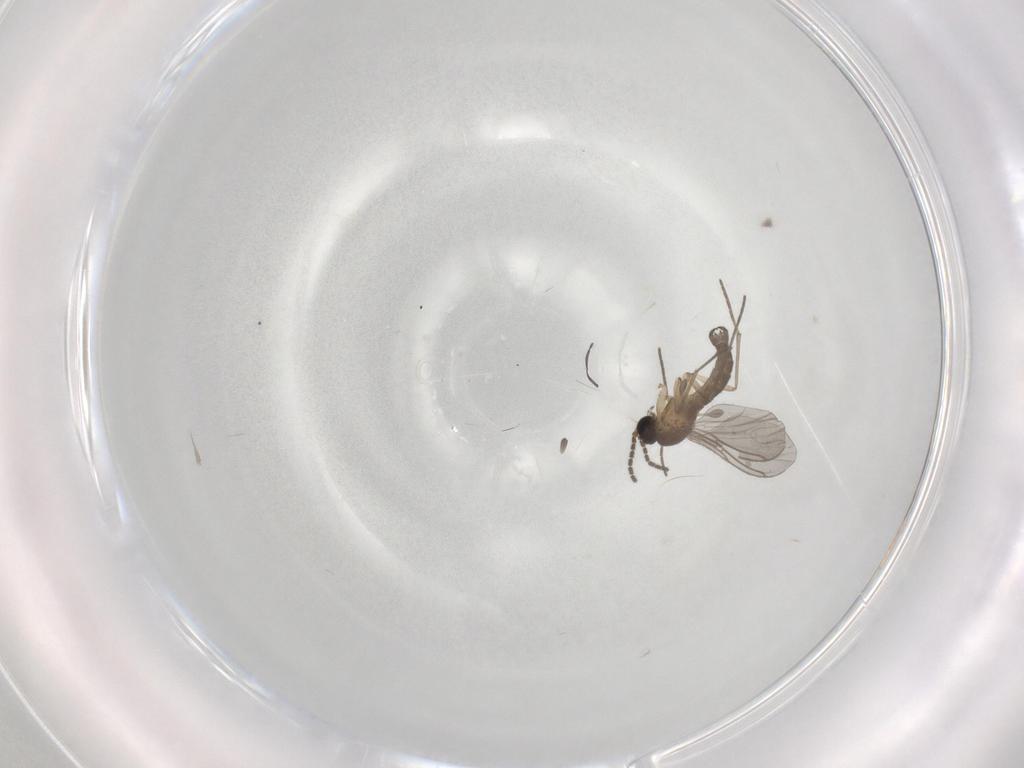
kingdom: Animalia
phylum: Arthropoda
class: Insecta
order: Diptera
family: Sciaridae
